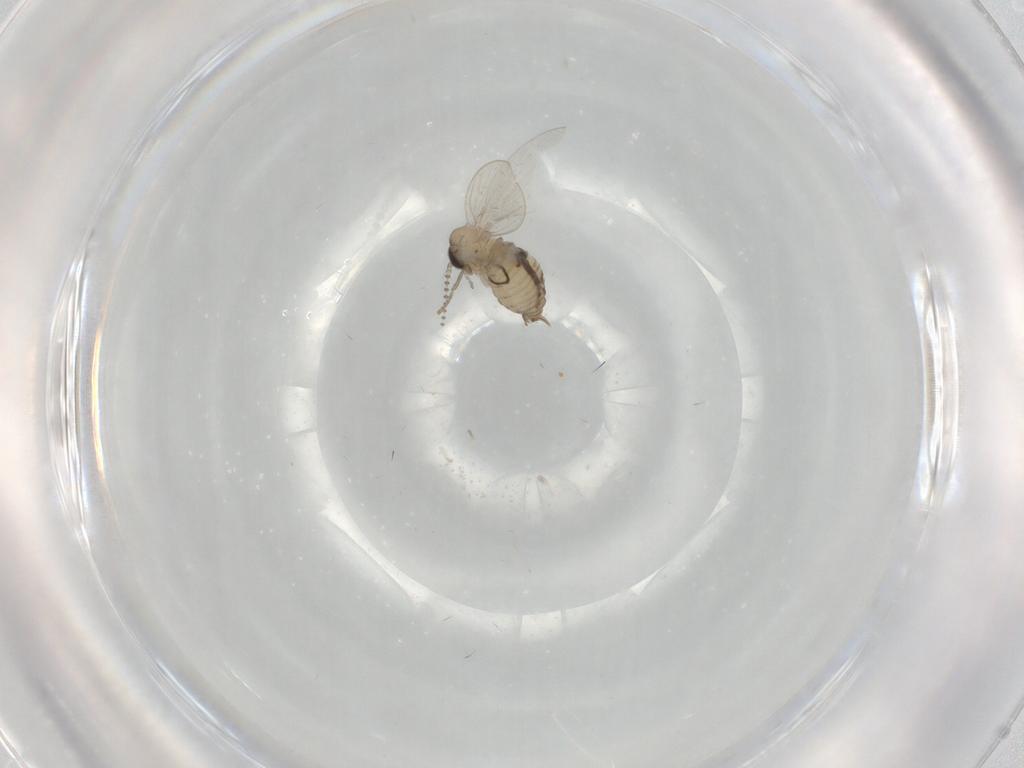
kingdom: Animalia
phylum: Arthropoda
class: Insecta
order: Diptera
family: Psychodidae
